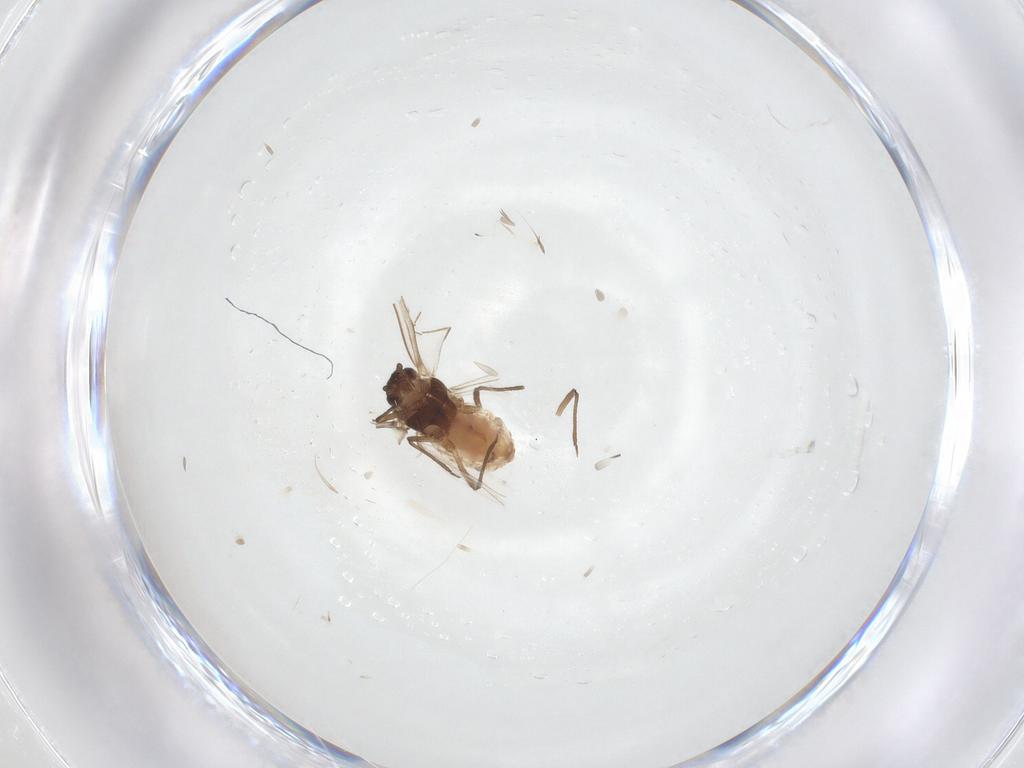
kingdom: Animalia
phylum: Arthropoda
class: Insecta
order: Hemiptera
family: Aphididae
